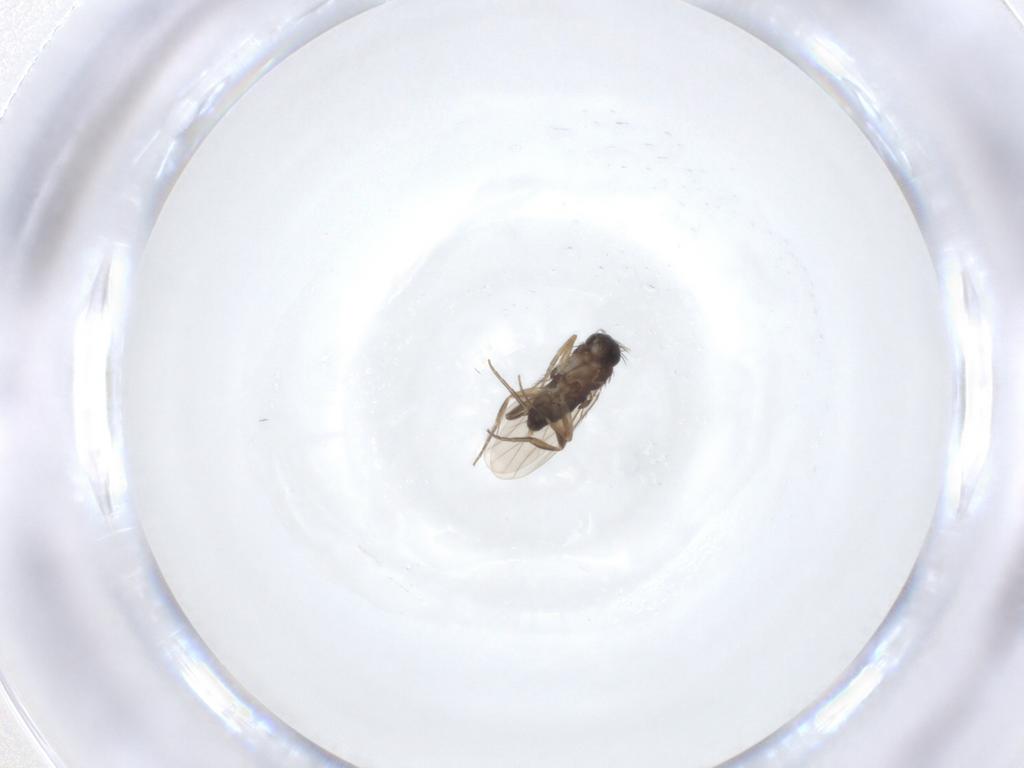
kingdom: Animalia
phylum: Arthropoda
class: Insecta
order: Diptera
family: Phoridae
